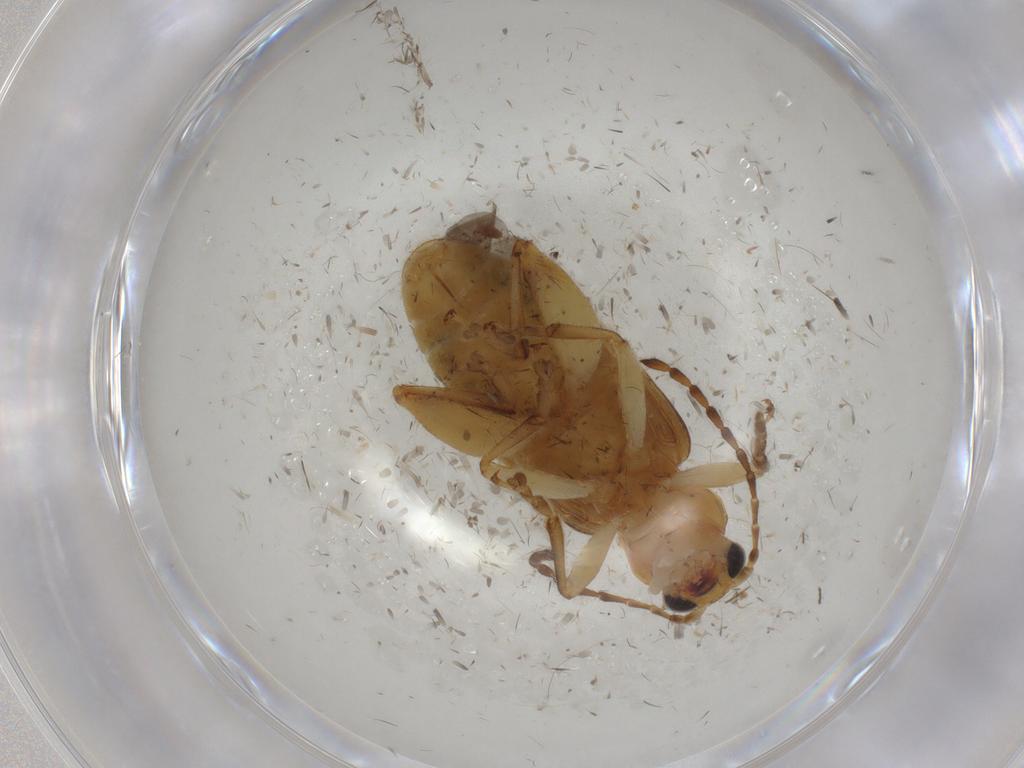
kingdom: Animalia
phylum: Arthropoda
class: Insecta
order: Coleoptera
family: Chrysomelidae
